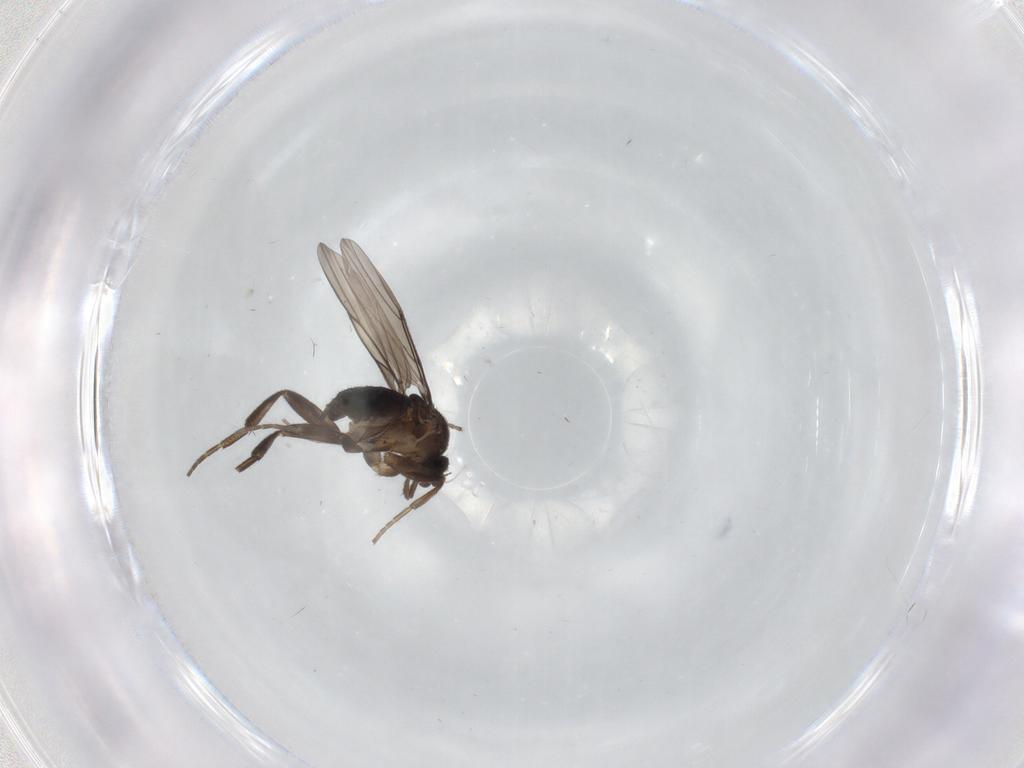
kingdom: Animalia
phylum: Arthropoda
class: Insecta
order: Diptera
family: Phoridae
